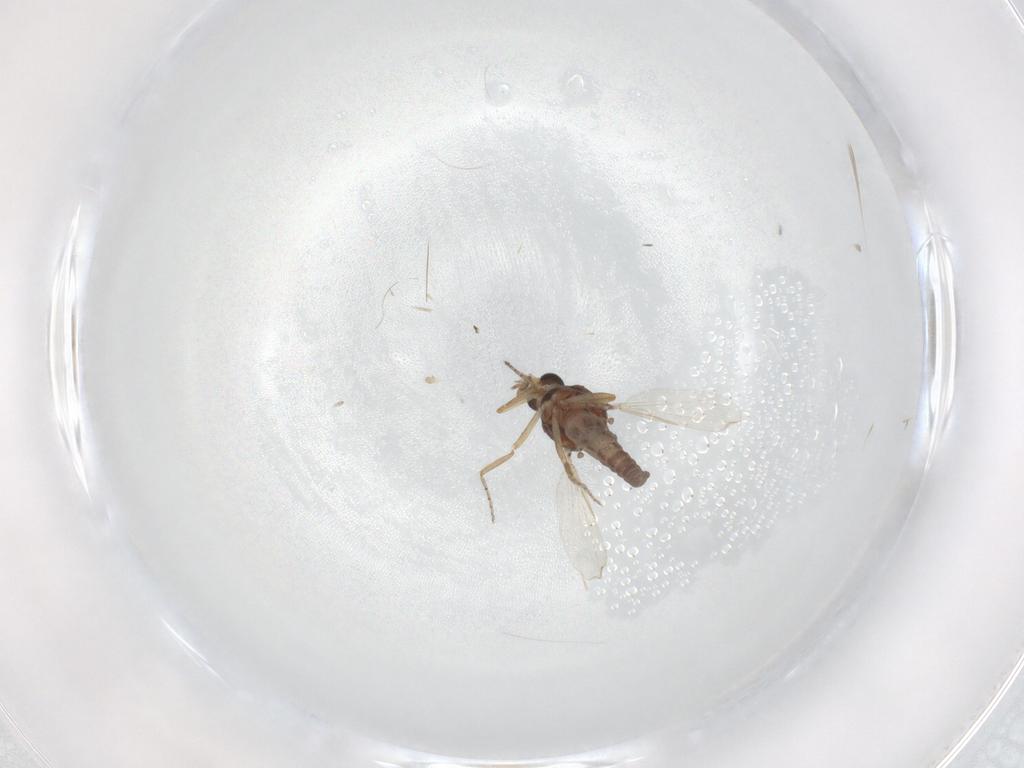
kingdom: Animalia
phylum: Arthropoda
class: Insecta
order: Diptera
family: Ceratopogonidae
